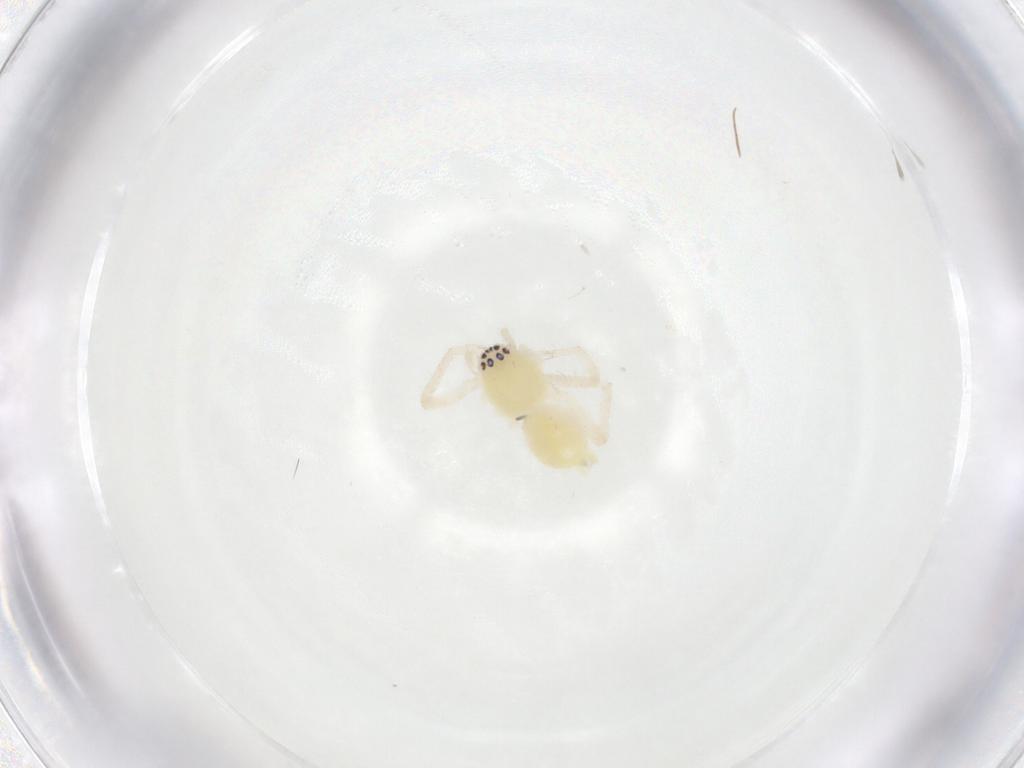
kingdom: Animalia
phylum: Arthropoda
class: Arachnida
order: Araneae
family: Anyphaenidae
